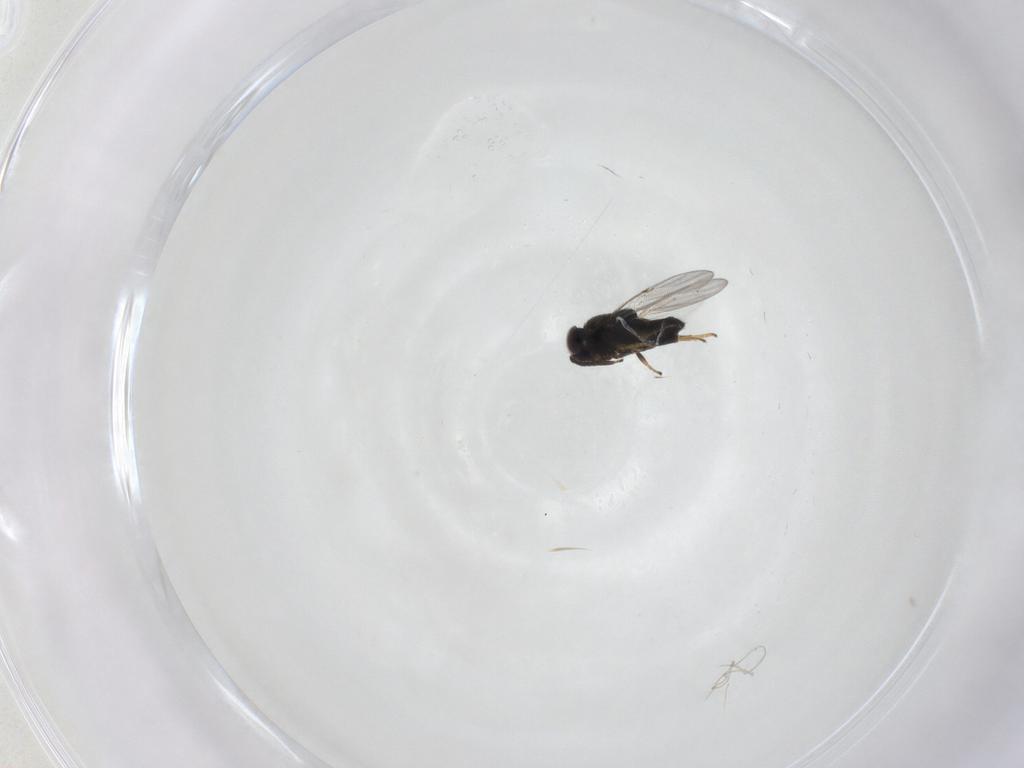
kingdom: Animalia
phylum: Arthropoda
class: Insecta
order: Hymenoptera
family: Encyrtidae
